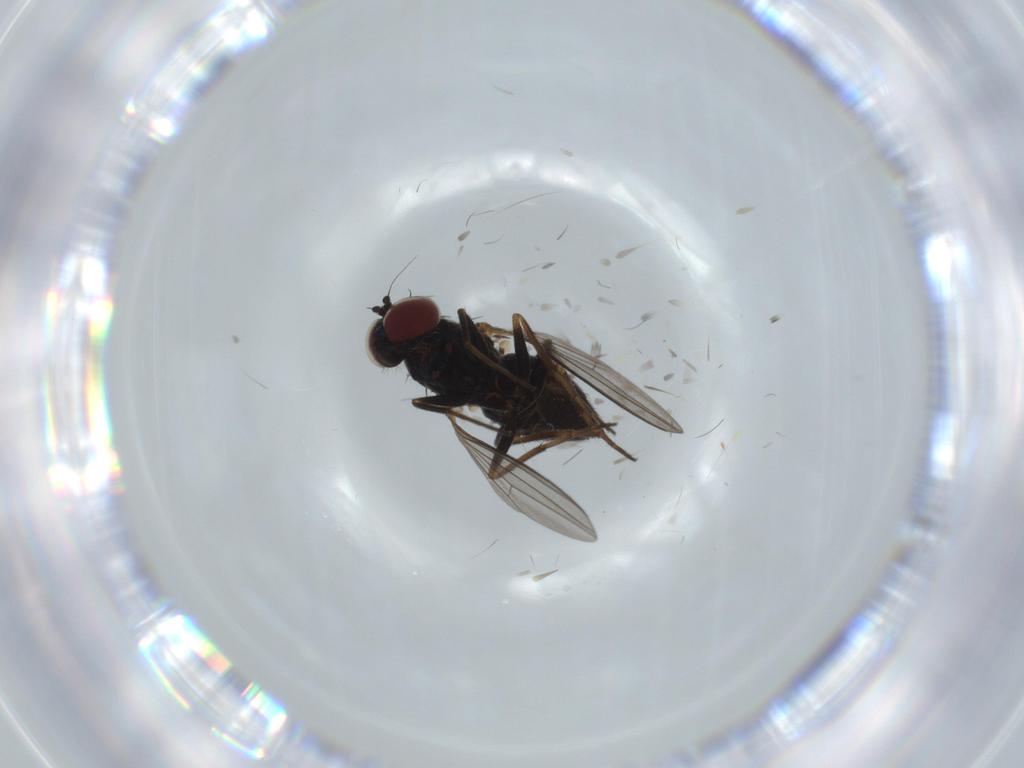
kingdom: Animalia
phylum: Arthropoda
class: Insecta
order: Diptera
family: Dolichopodidae
